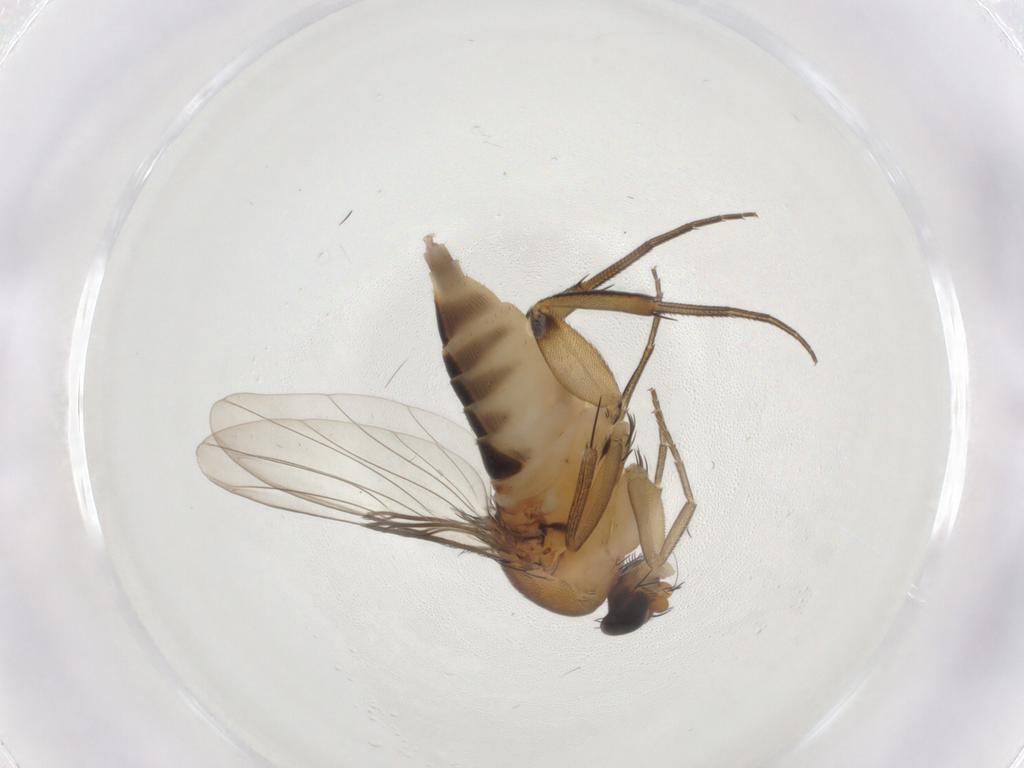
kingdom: Animalia
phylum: Arthropoda
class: Insecta
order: Diptera
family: Phoridae
